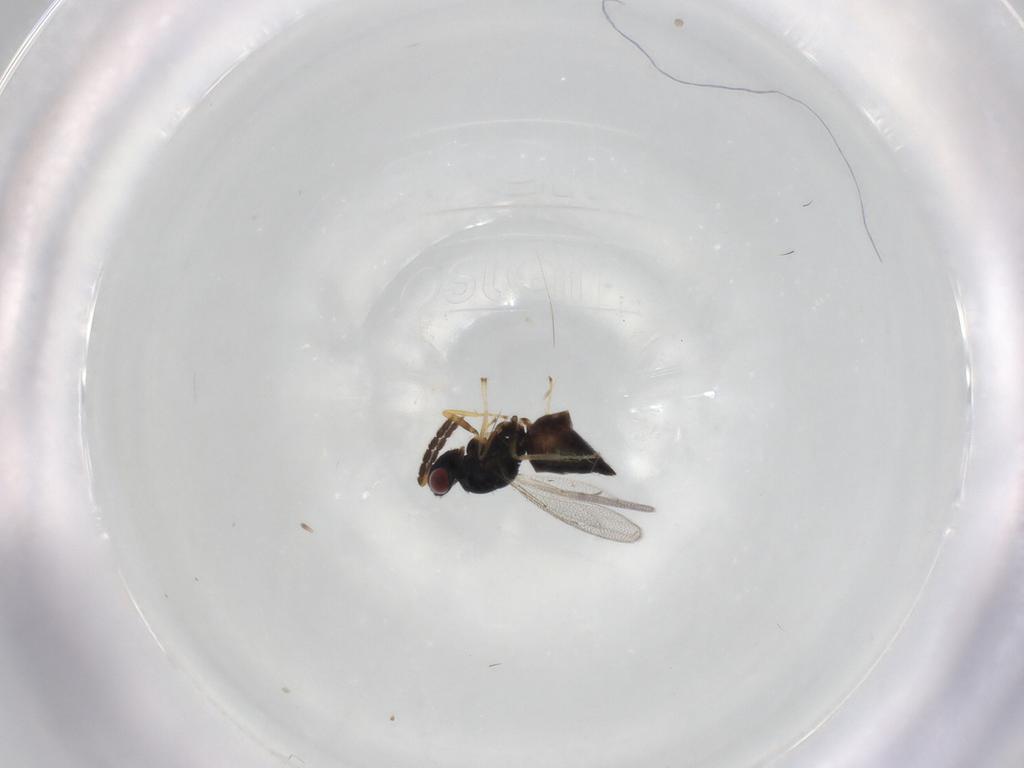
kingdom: Animalia
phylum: Arthropoda
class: Insecta
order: Hymenoptera
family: Eulophidae
